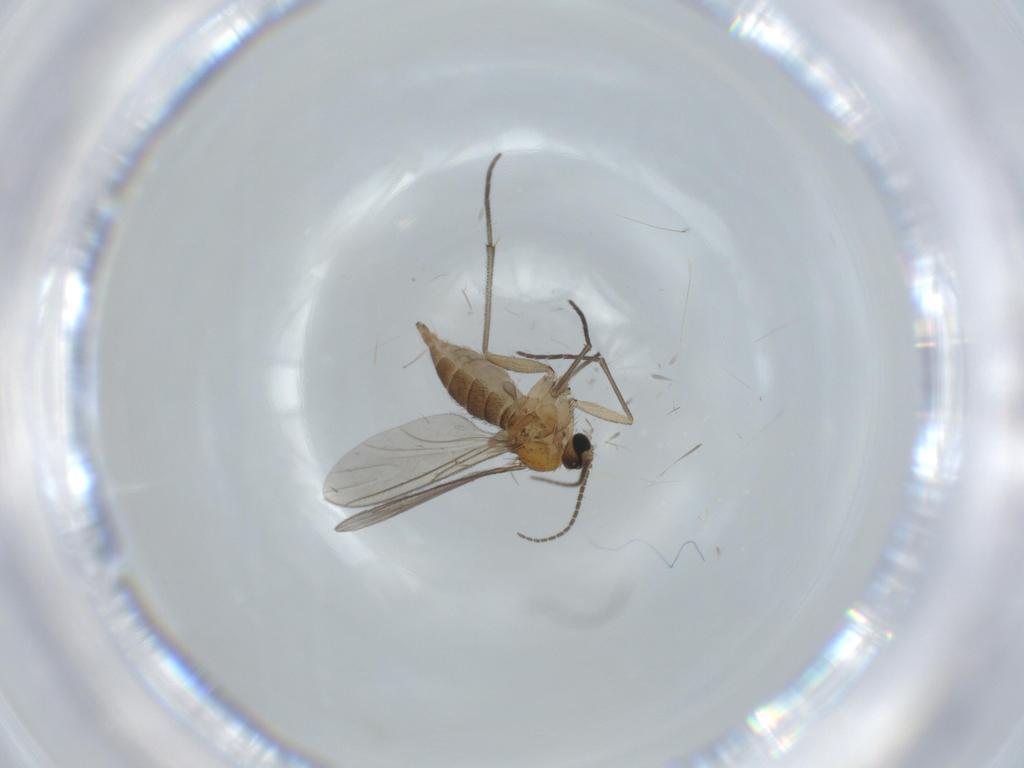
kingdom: Animalia
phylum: Arthropoda
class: Insecta
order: Diptera
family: Sciaridae
